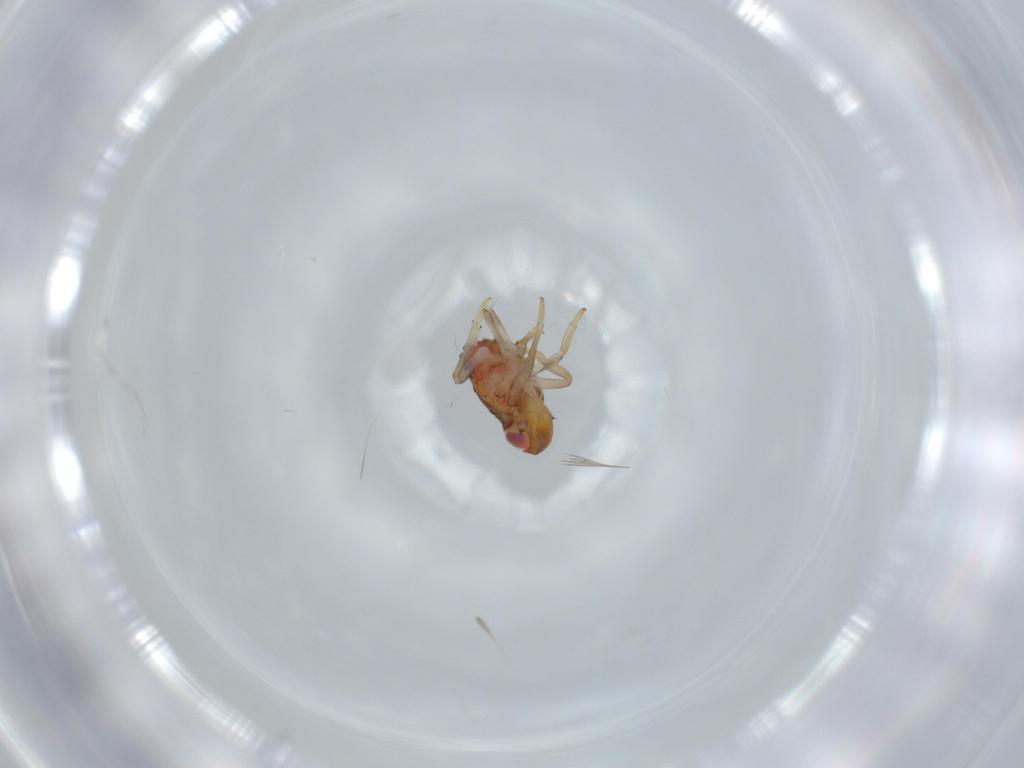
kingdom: Animalia
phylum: Arthropoda
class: Insecta
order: Hemiptera
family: Issidae
